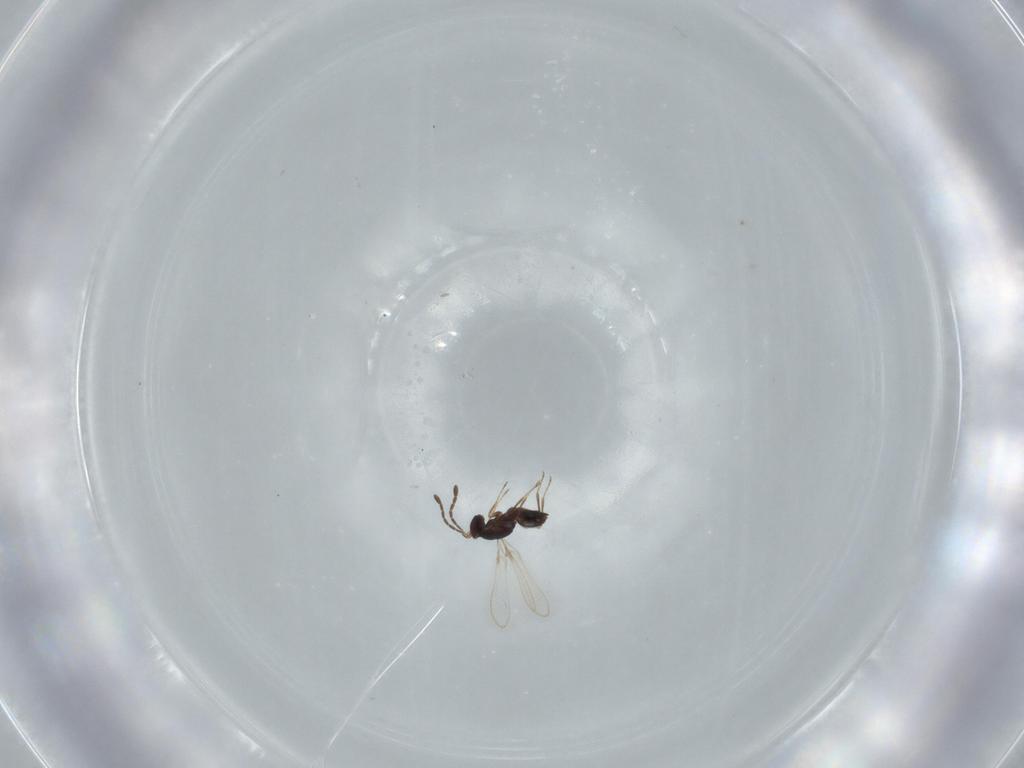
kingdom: Animalia
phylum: Arthropoda
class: Insecta
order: Hymenoptera
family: Mymaridae
